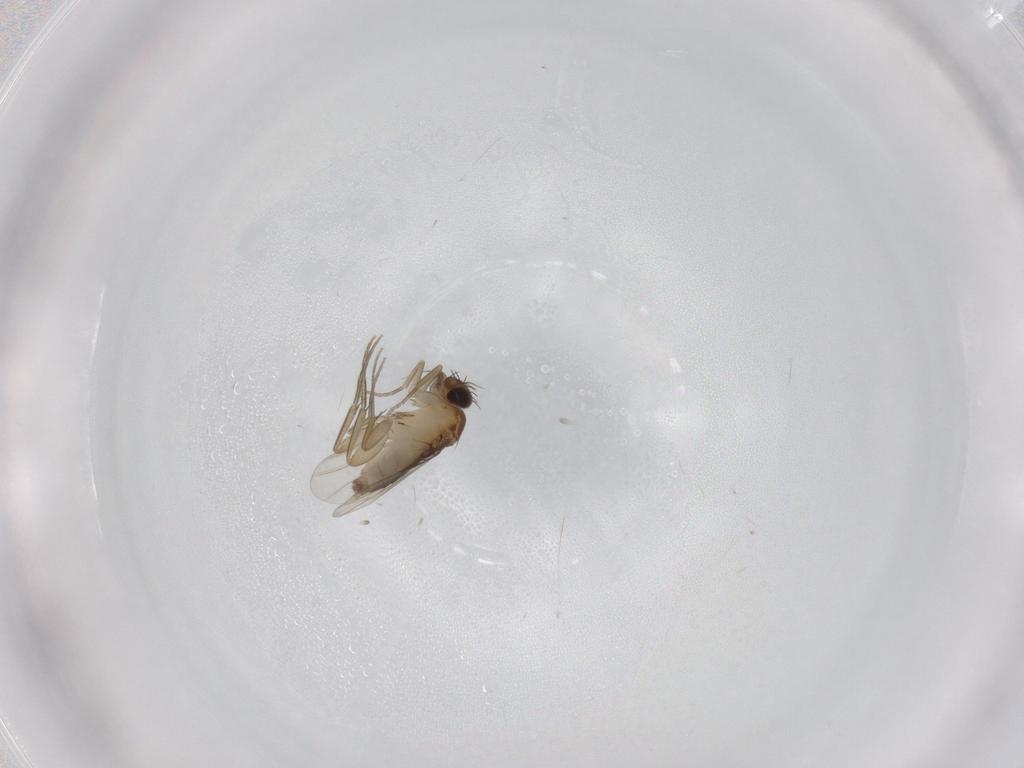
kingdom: Animalia
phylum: Arthropoda
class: Insecta
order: Diptera
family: Phoridae
